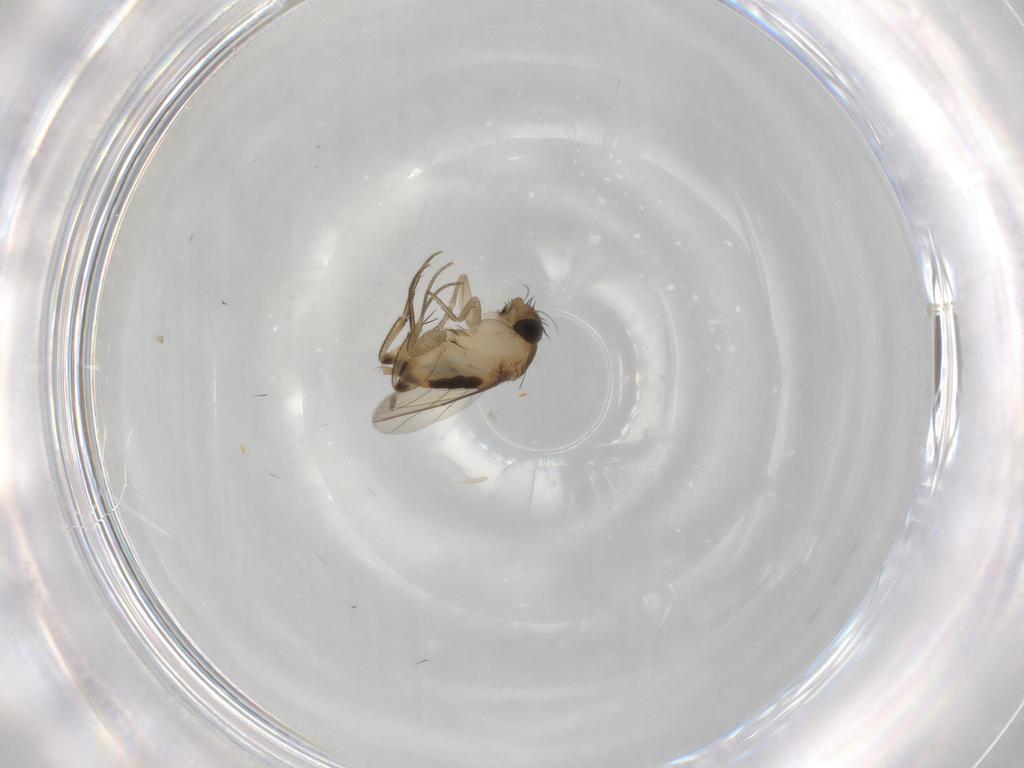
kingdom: Animalia
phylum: Arthropoda
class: Insecta
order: Diptera
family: Phoridae
